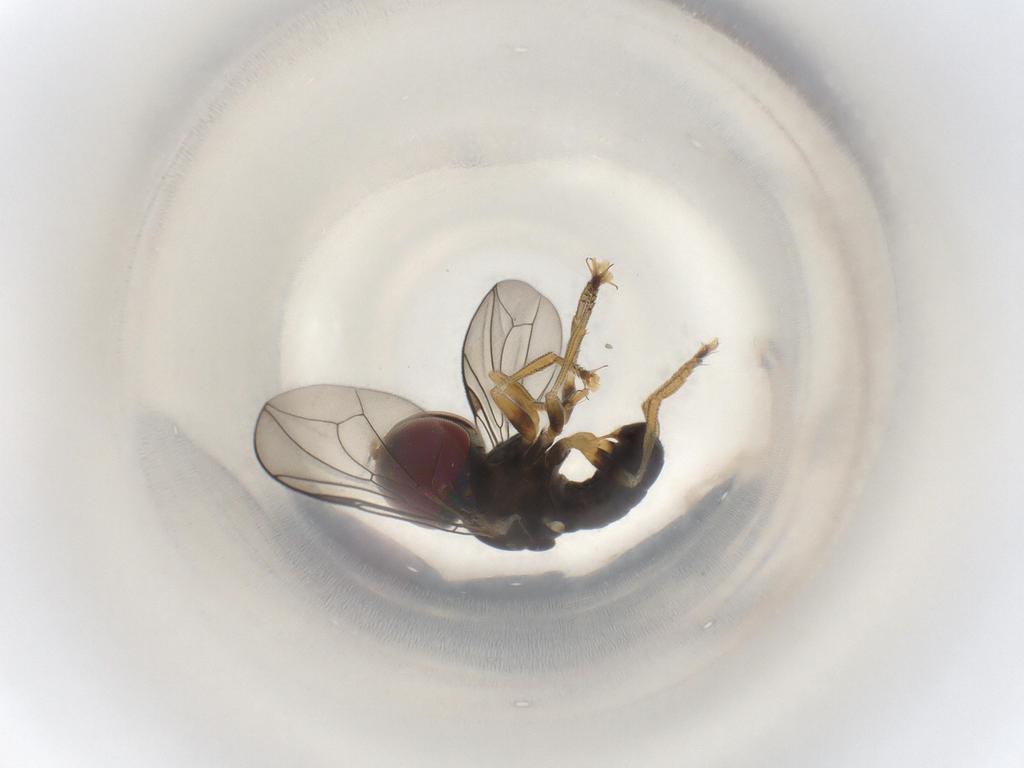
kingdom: Animalia
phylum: Arthropoda
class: Insecta
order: Diptera
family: Pipunculidae
